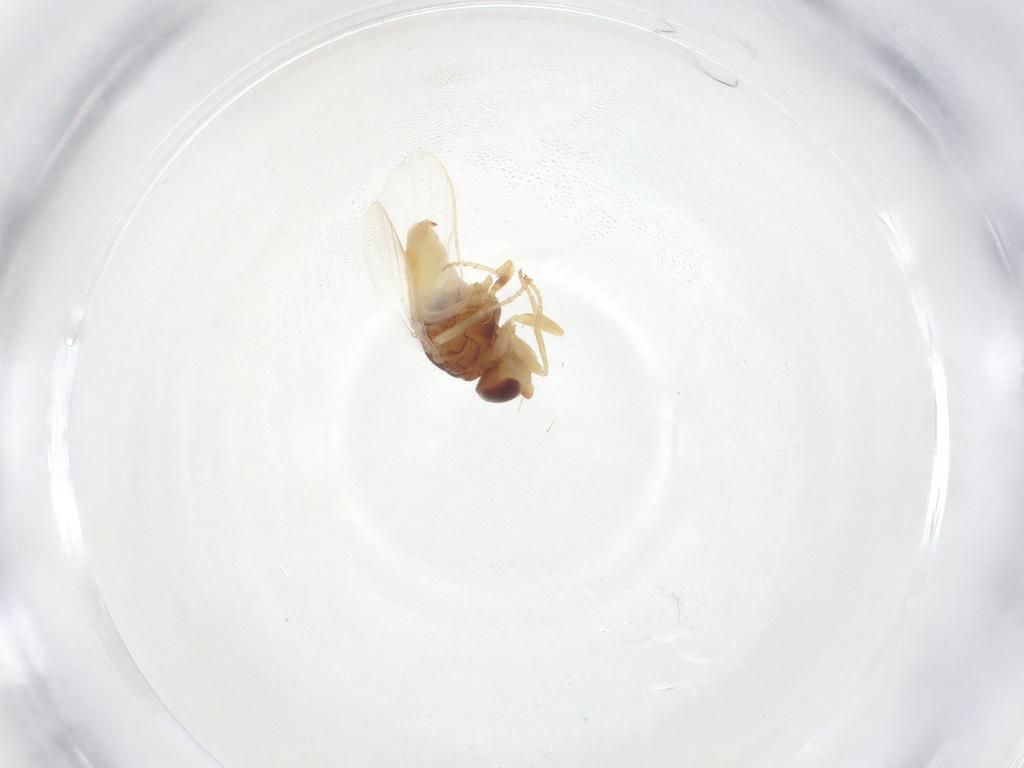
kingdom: Animalia
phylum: Arthropoda
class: Insecta
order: Diptera
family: Muscidae
